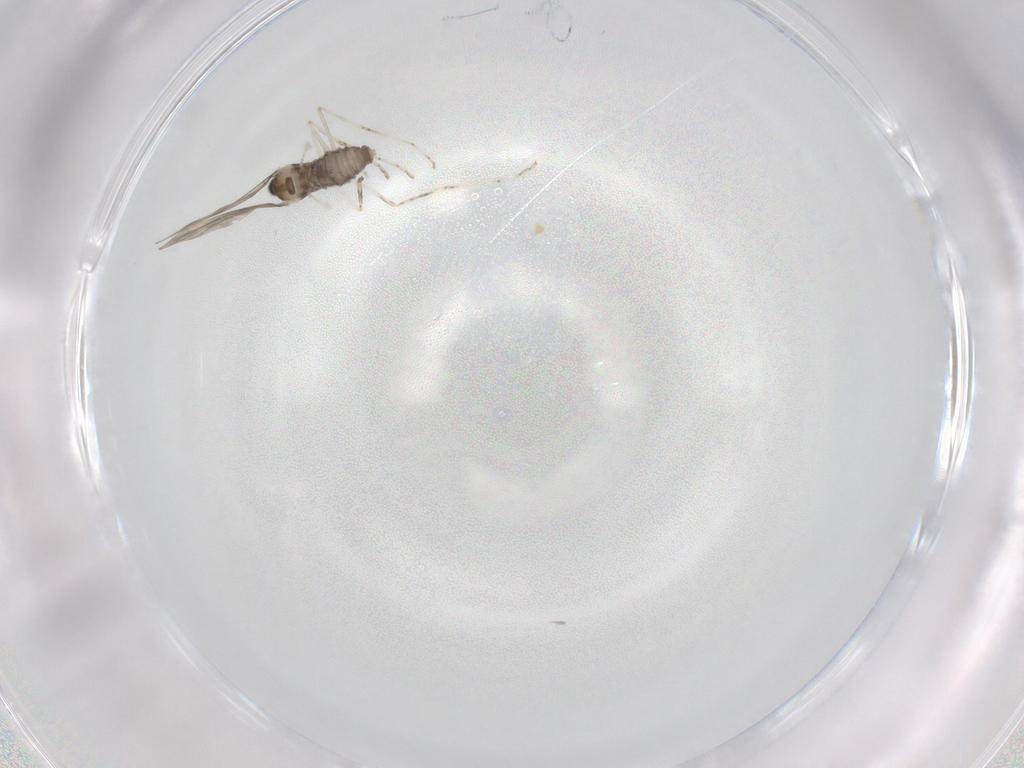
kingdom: Animalia
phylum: Arthropoda
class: Insecta
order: Diptera
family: Cecidomyiidae
